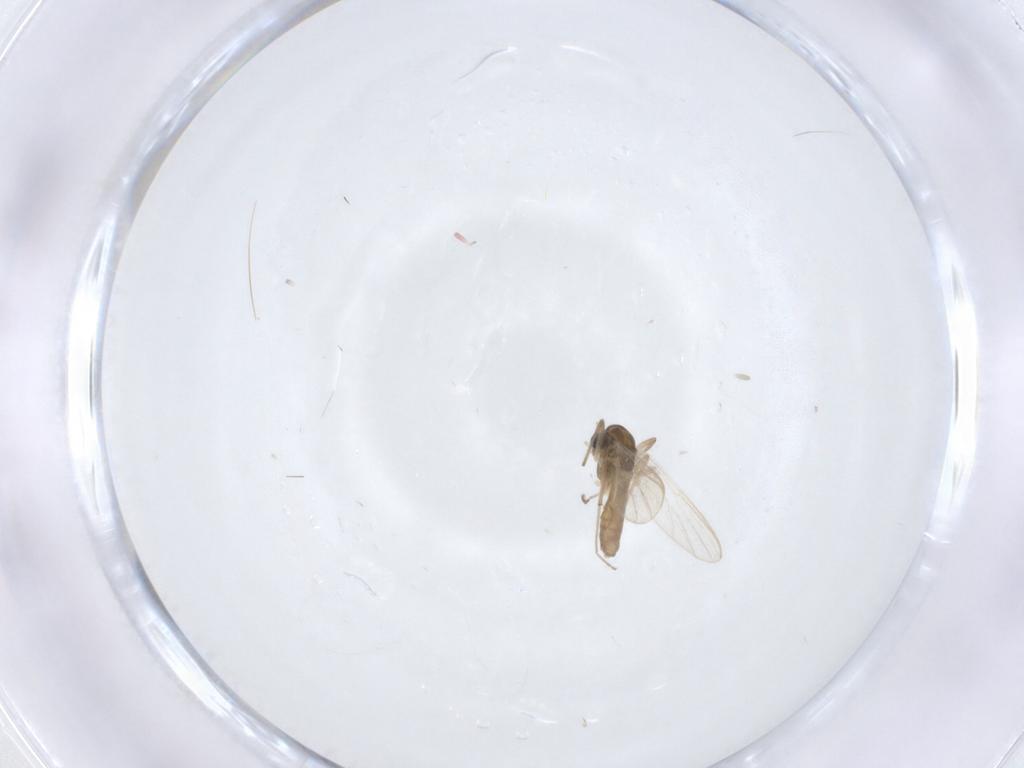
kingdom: Animalia
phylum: Arthropoda
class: Insecta
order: Diptera
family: Chironomidae
